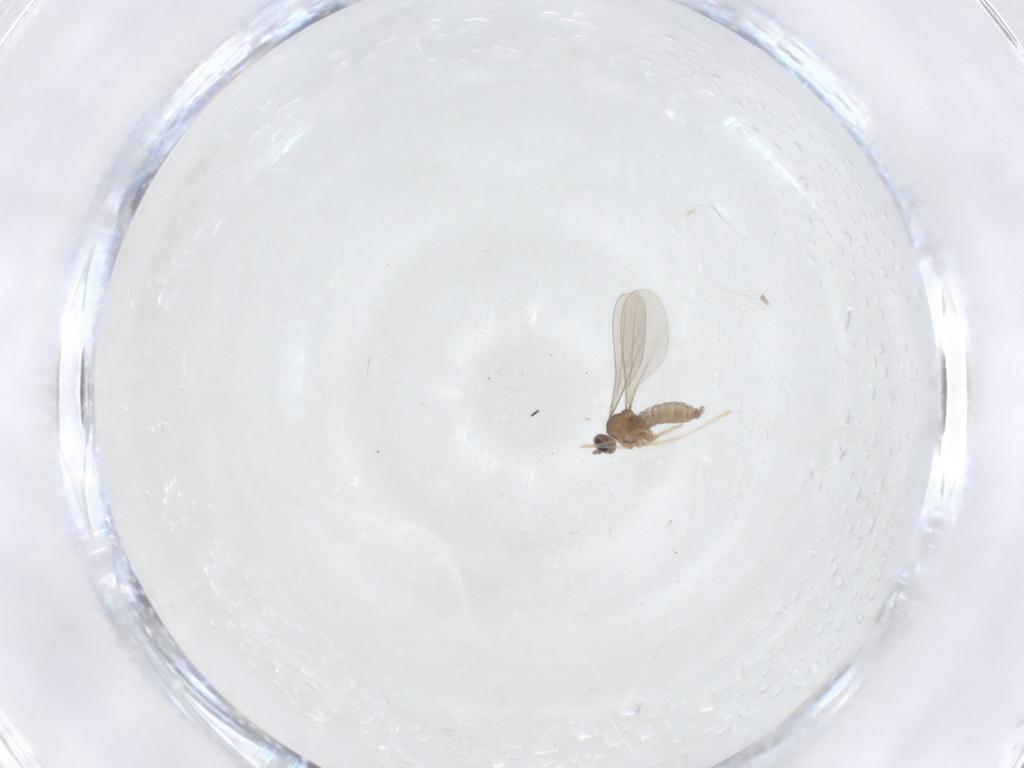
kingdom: Animalia
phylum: Arthropoda
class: Insecta
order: Diptera
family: Chironomidae
